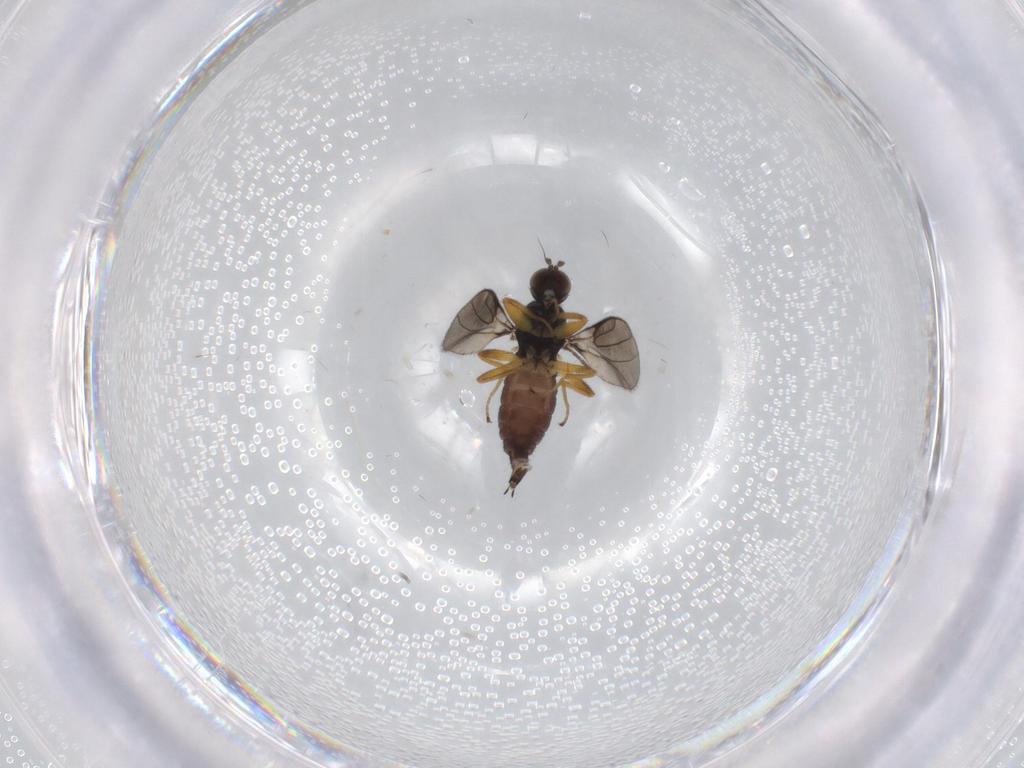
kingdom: Animalia
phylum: Arthropoda
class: Insecta
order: Diptera
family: Hybotidae
